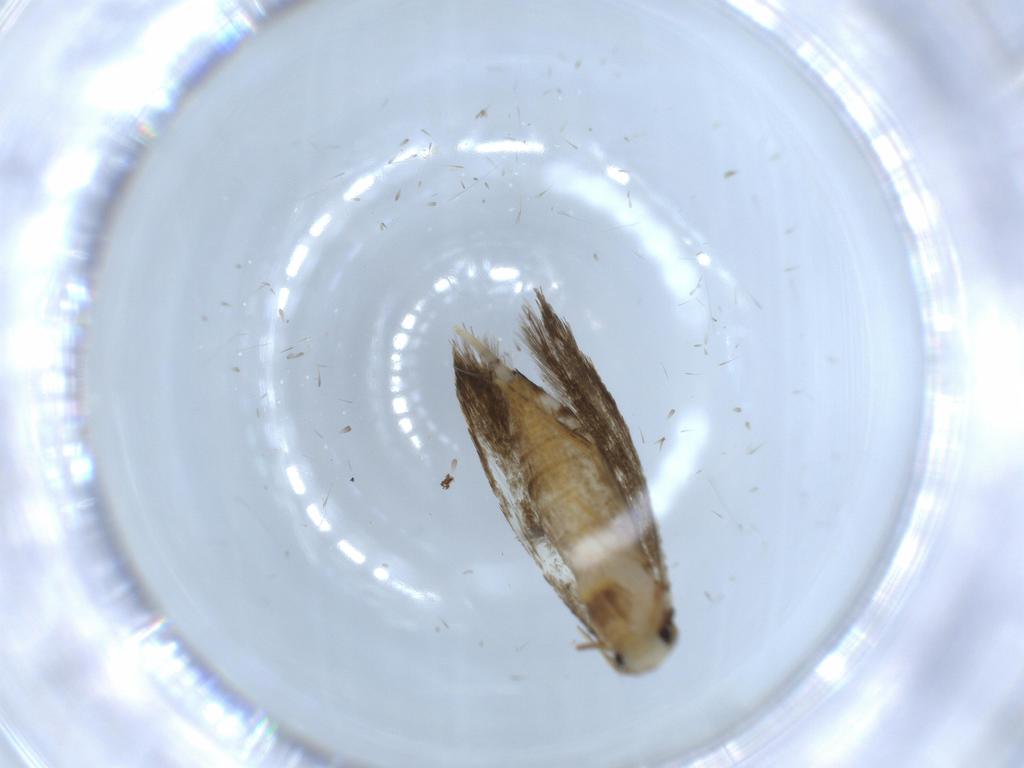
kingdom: Animalia
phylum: Arthropoda
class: Insecta
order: Lepidoptera
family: Tineidae
